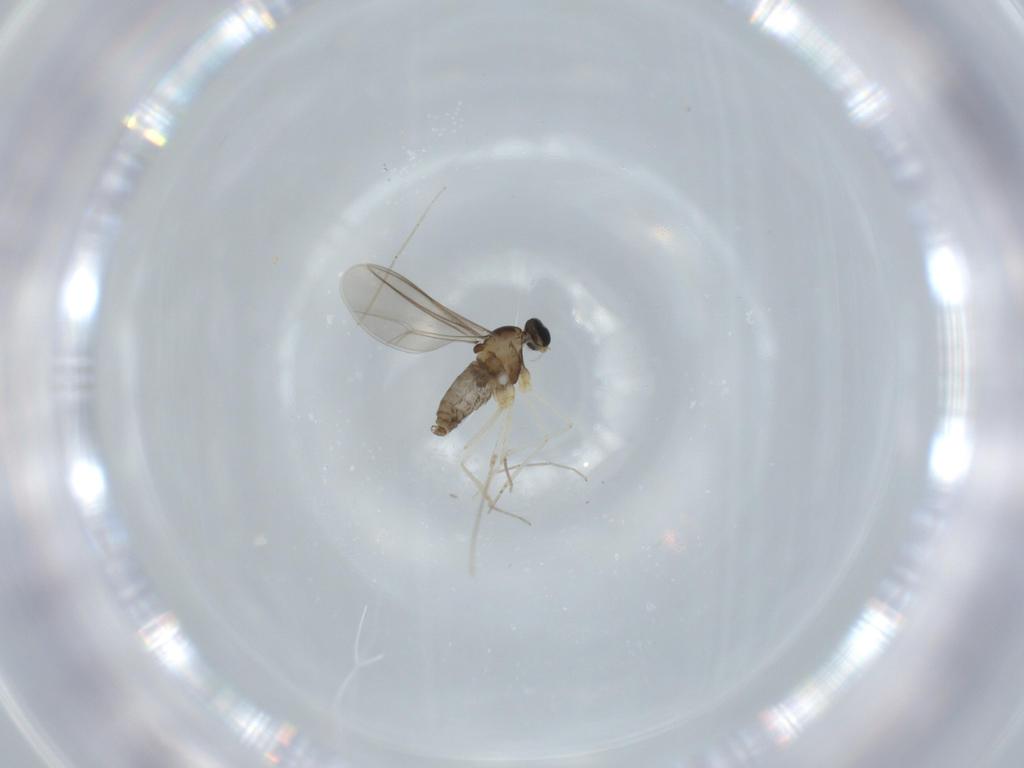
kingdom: Animalia
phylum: Arthropoda
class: Insecta
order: Diptera
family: Cecidomyiidae
